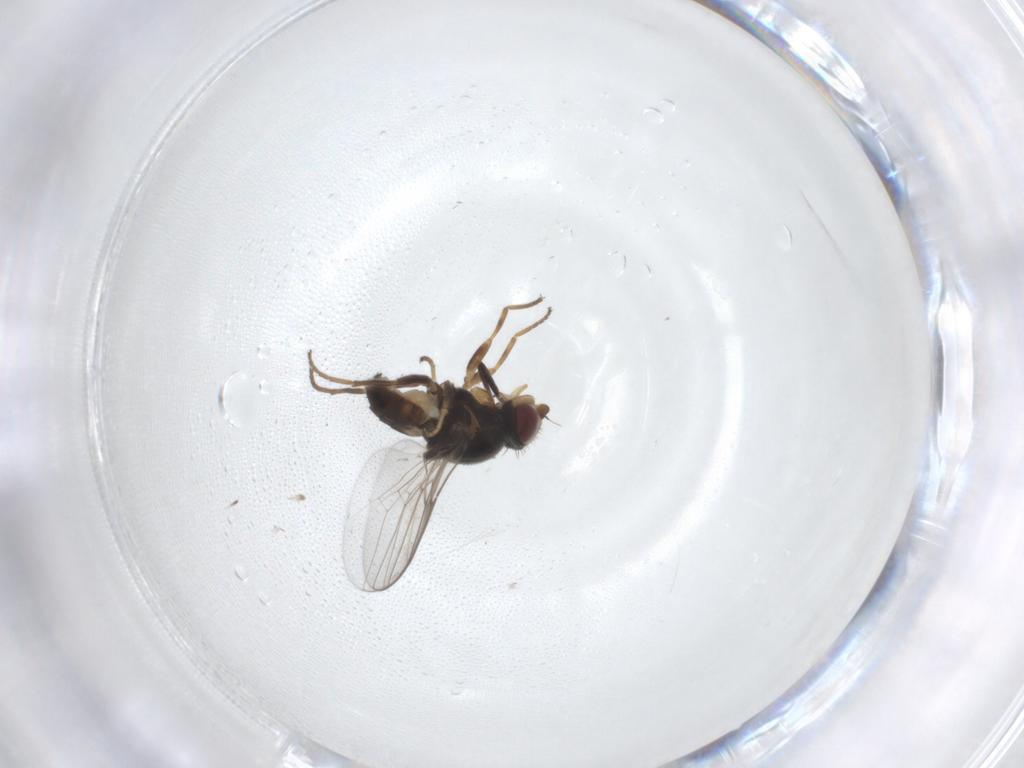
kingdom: Animalia
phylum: Arthropoda
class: Insecta
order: Diptera
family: Chloropidae
